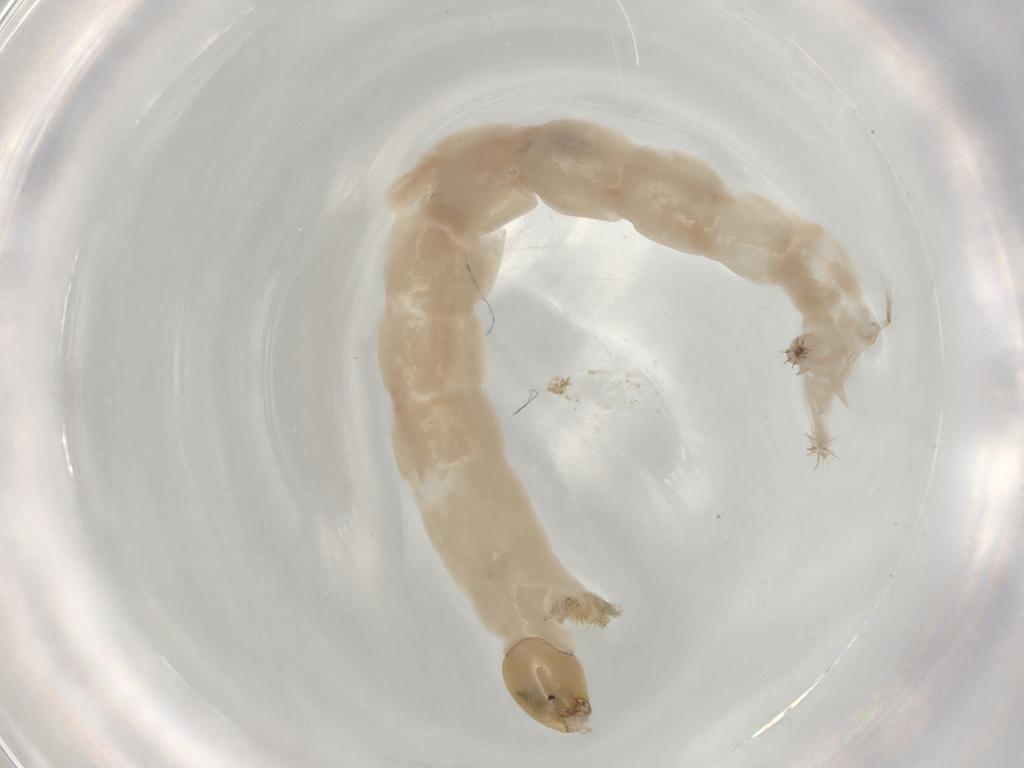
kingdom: Animalia
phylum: Arthropoda
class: Insecta
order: Diptera
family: Chironomidae
